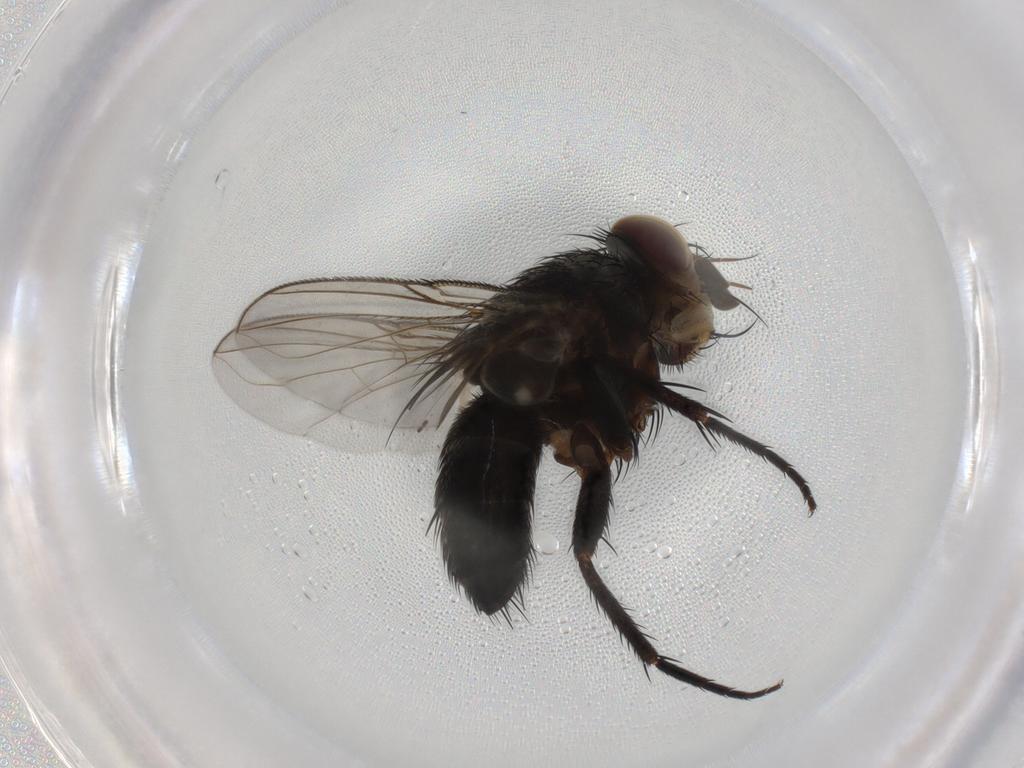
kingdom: Animalia
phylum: Arthropoda
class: Insecta
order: Diptera
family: Tachinidae
